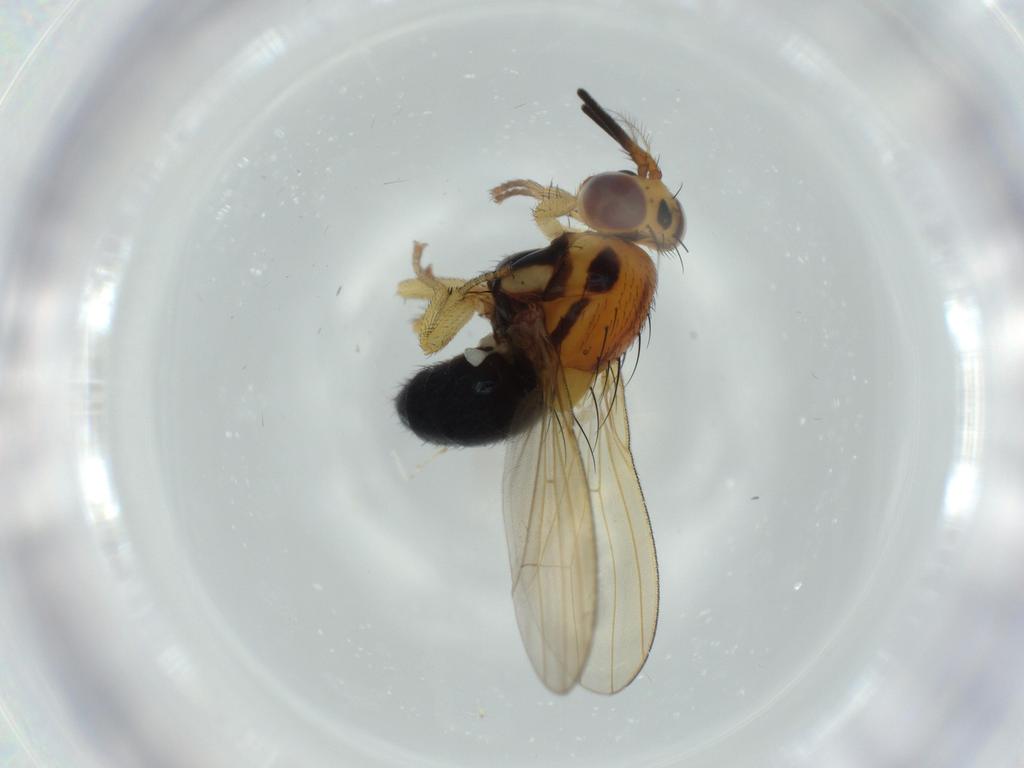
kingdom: Animalia
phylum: Arthropoda
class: Insecta
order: Diptera
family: Lauxaniidae
